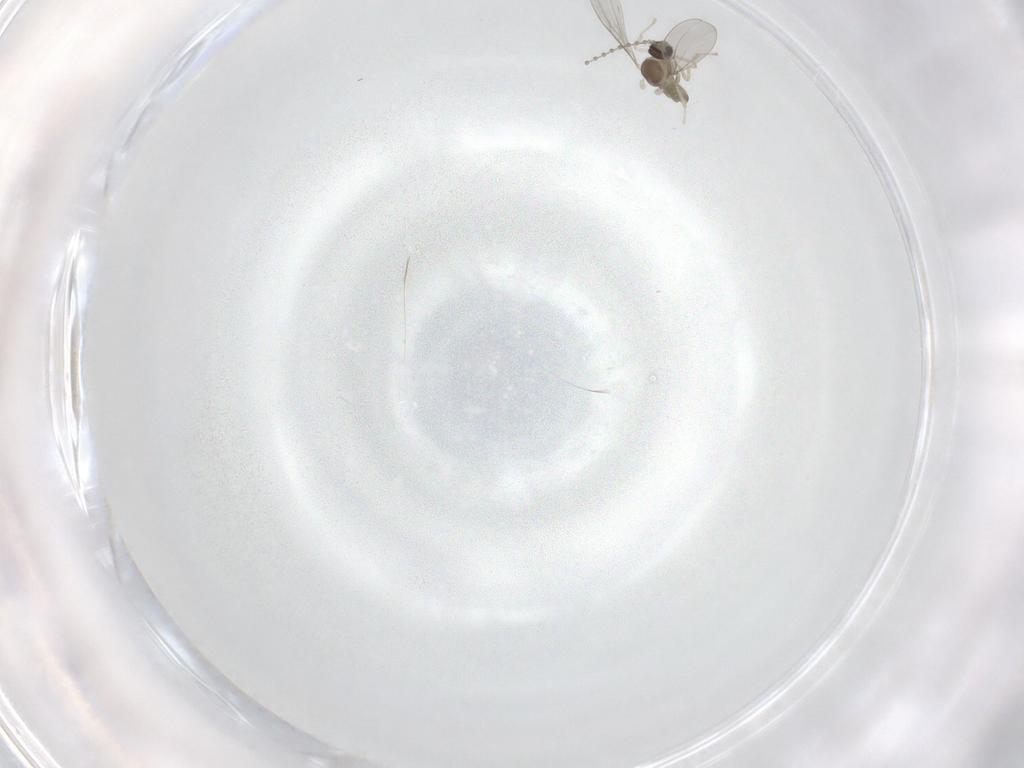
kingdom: Animalia
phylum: Arthropoda
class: Insecta
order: Diptera
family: Cecidomyiidae
